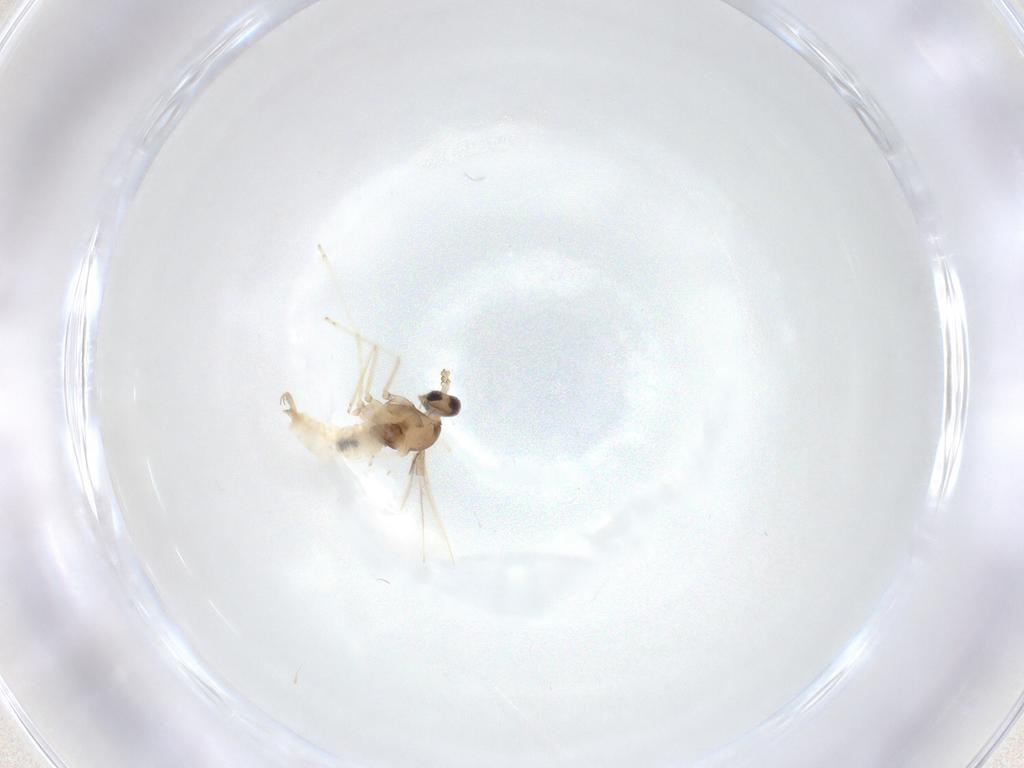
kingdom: Animalia
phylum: Arthropoda
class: Insecta
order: Diptera
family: Cecidomyiidae
